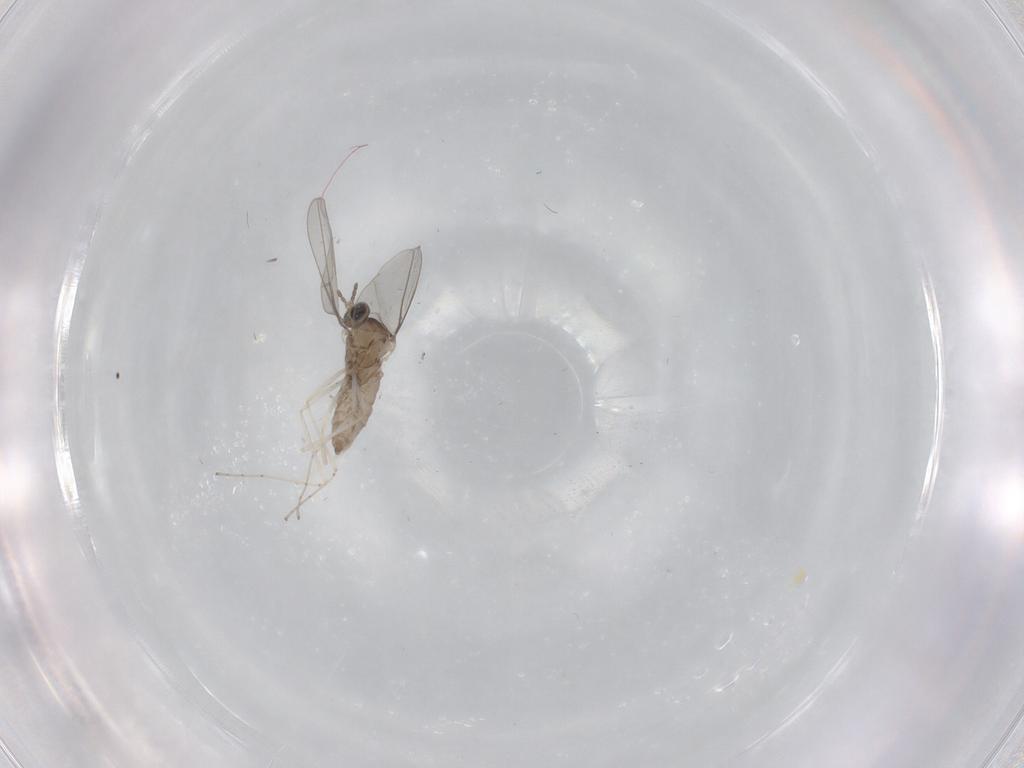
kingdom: Animalia
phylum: Arthropoda
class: Insecta
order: Diptera
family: Cecidomyiidae
